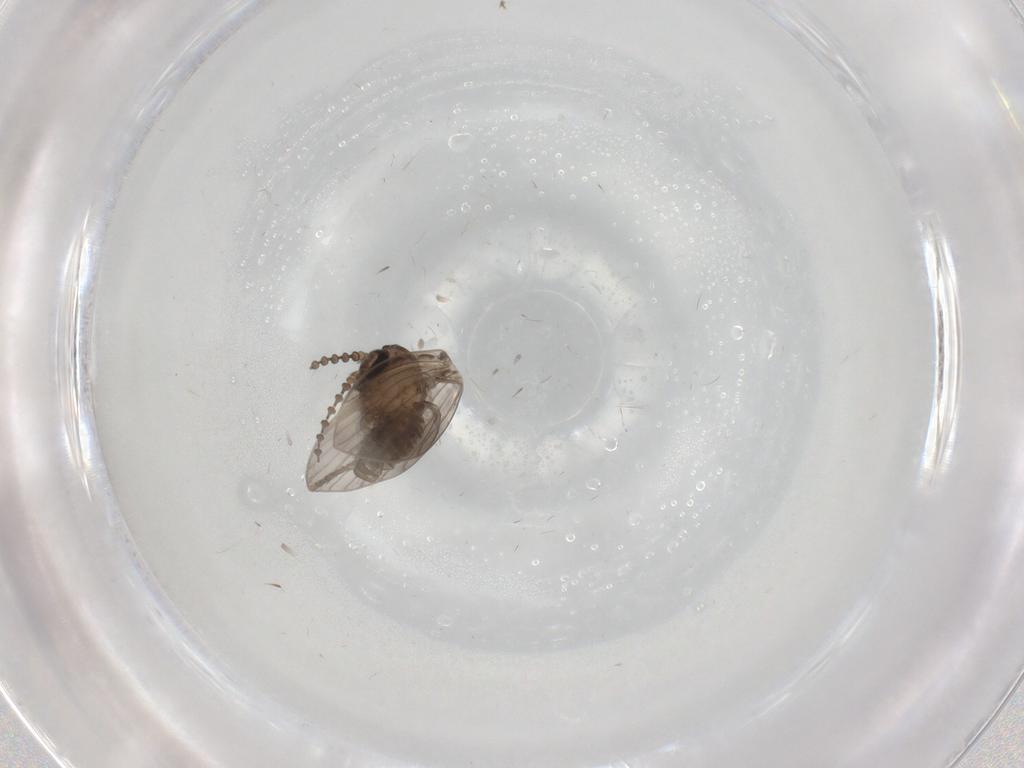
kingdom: Animalia
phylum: Arthropoda
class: Insecta
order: Diptera
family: Psychodidae
